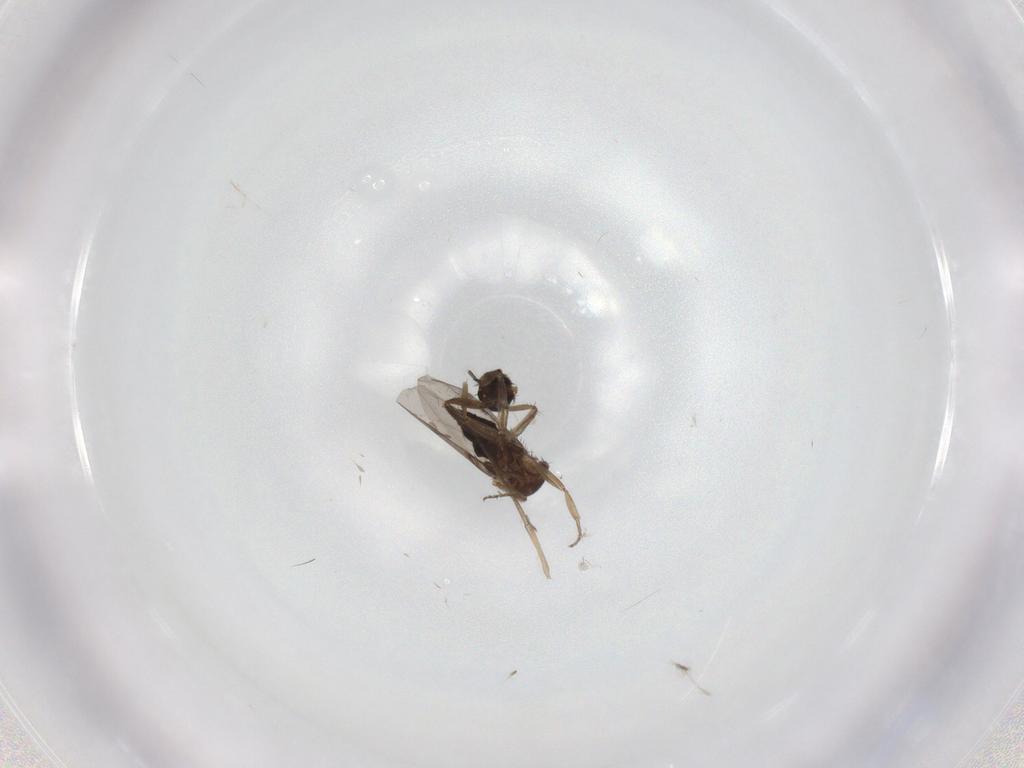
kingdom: Animalia
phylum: Arthropoda
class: Insecta
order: Diptera
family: Phoridae
